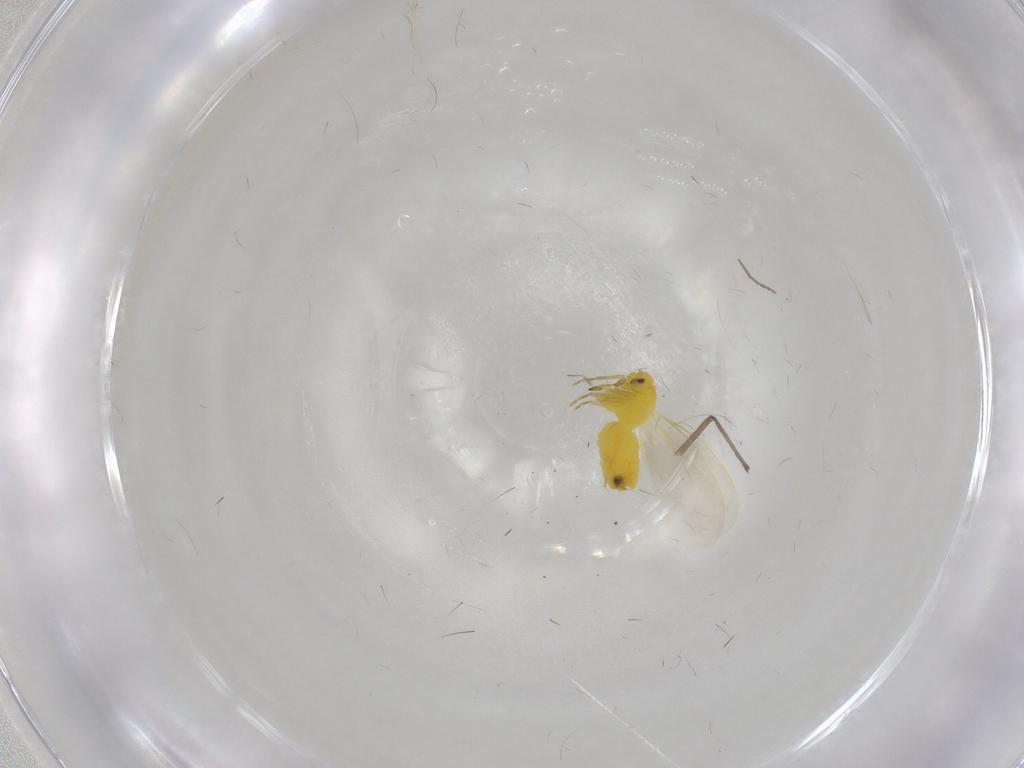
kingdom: Animalia
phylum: Arthropoda
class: Insecta
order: Hemiptera
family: Aleyrodidae
